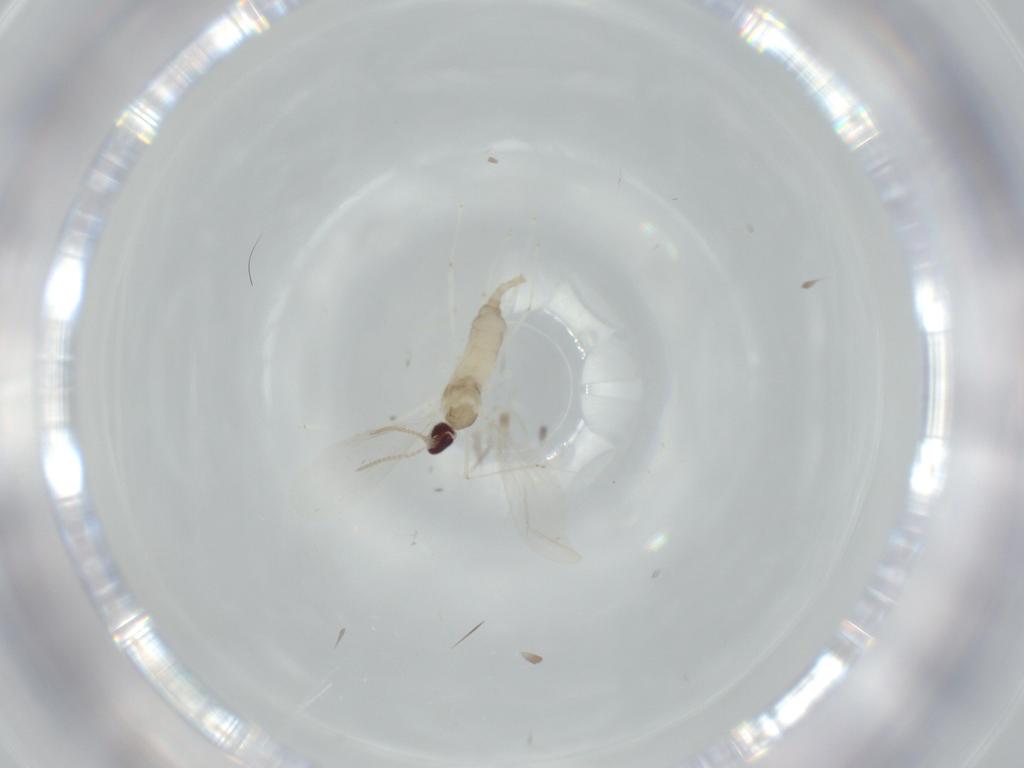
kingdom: Animalia
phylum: Arthropoda
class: Insecta
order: Diptera
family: Cecidomyiidae
